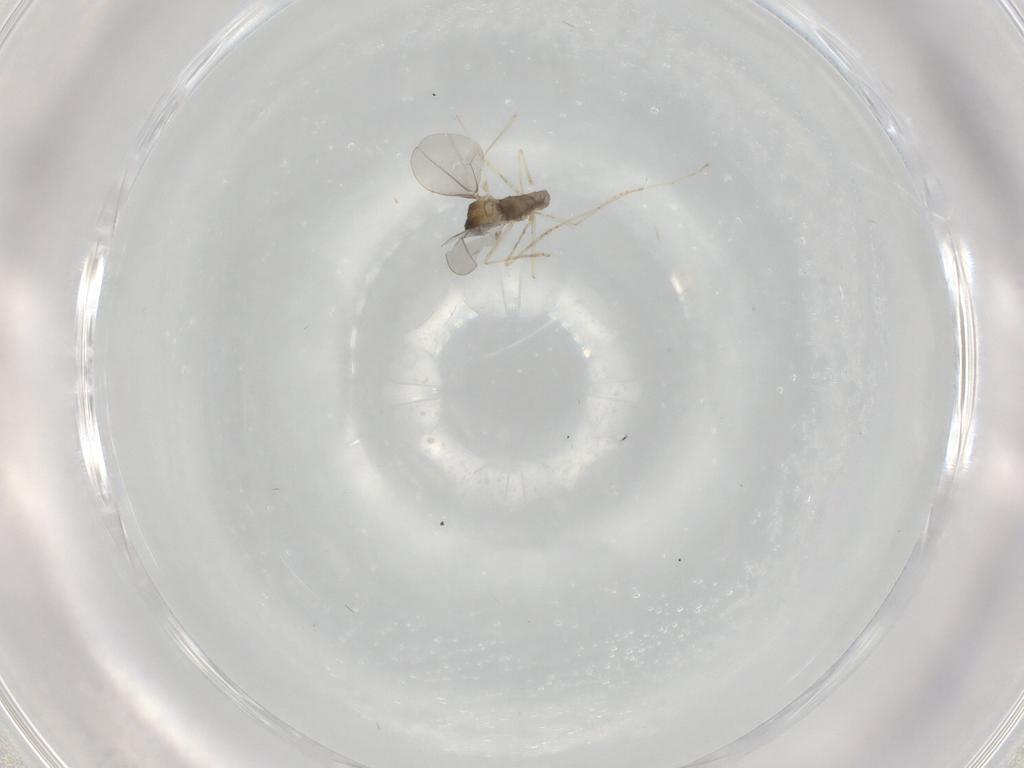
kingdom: Animalia
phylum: Arthropoda
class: Insecta
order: Diptera
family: Cecidomyiidae
